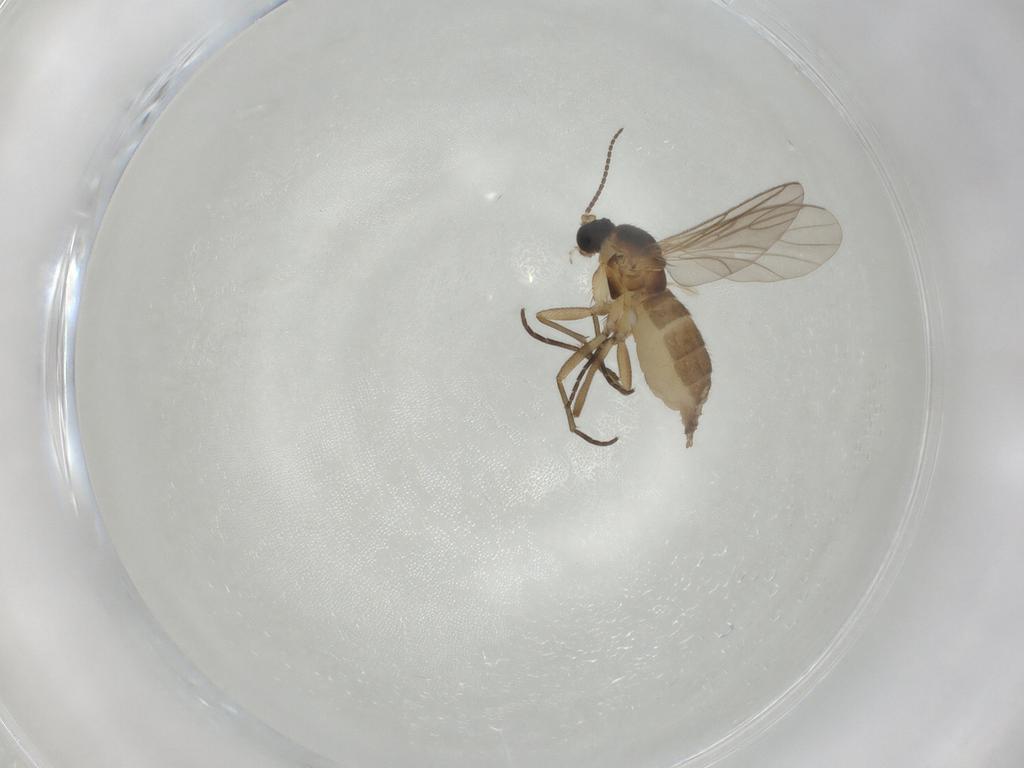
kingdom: Animalia
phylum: Arthropoda
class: Insecta
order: Diptera
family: Sciaridae
